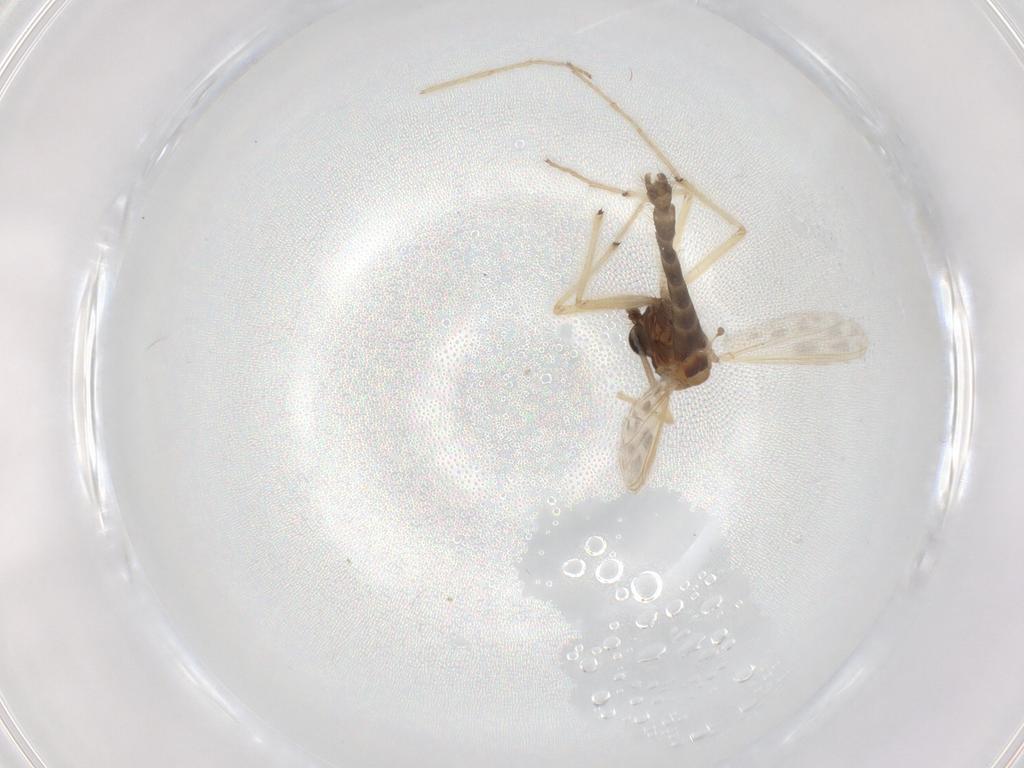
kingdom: Animalia
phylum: Arthropoda
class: Insecta
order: Diptera
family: Chironomidae
